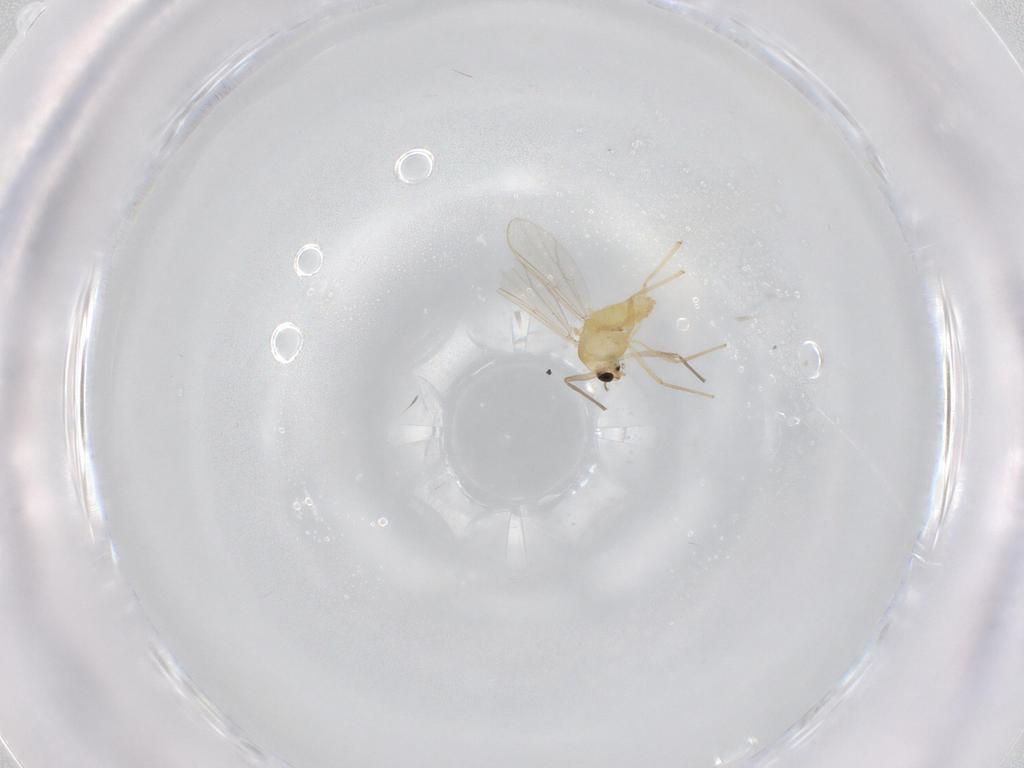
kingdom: Animalia
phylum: Arthropoda
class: Insecta
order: Diptera
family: Chironomidae
